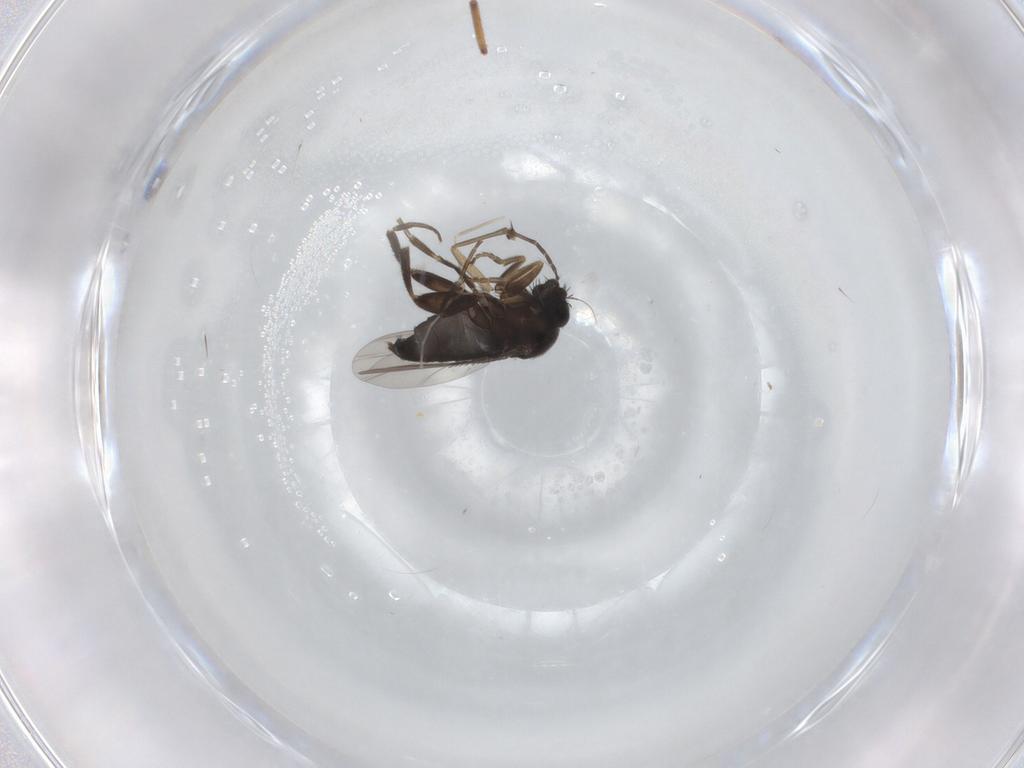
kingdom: Animalia
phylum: Arthropoda
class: Insecta
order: Diptera
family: Phoridae
